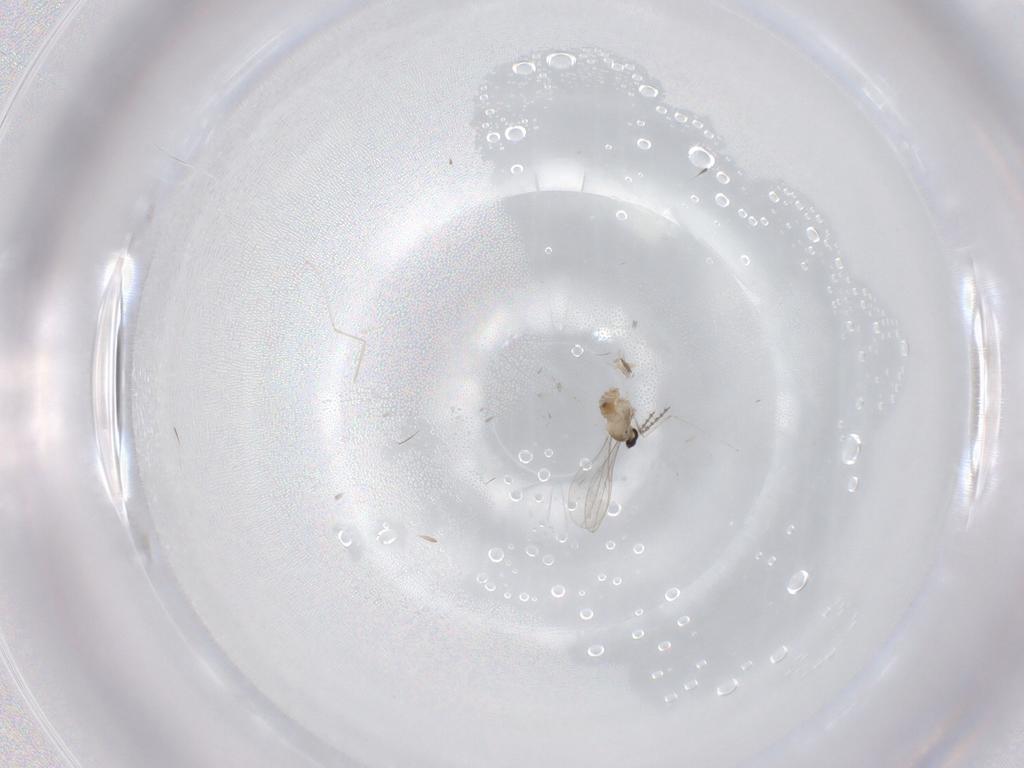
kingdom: Animalia
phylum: Arthropoda
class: Insecta
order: Diptera
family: Cecidomyiidae
